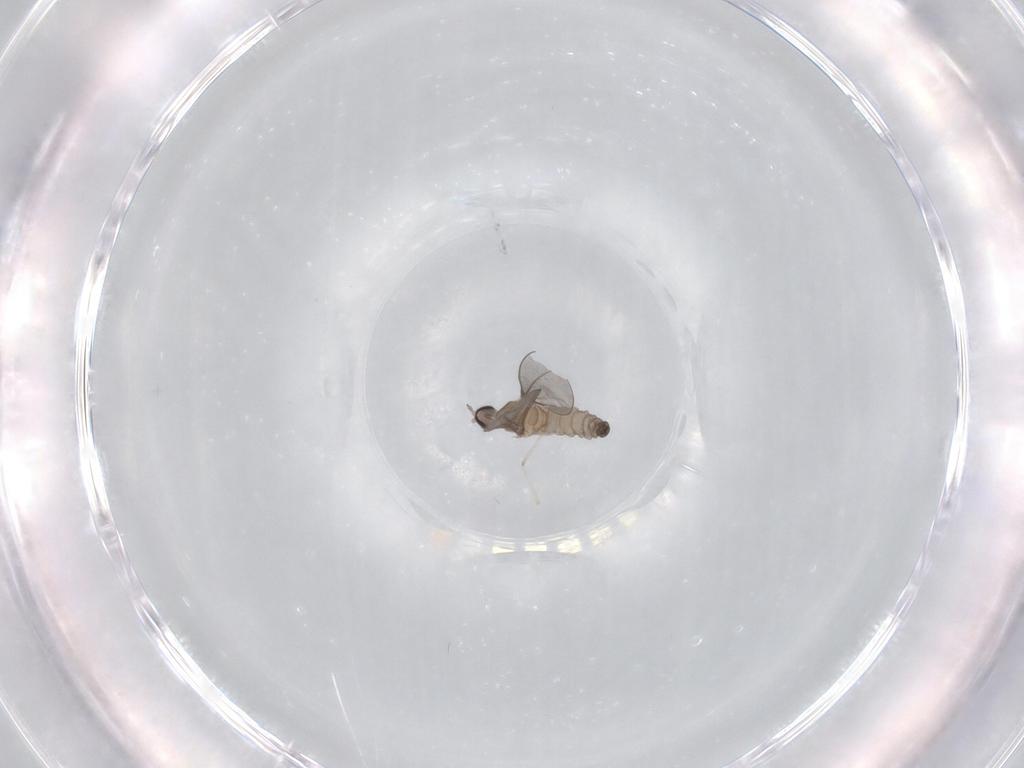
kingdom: Animalia
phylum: Arthropoda
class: Insecta
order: Diptera
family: Cecidomyiidae
